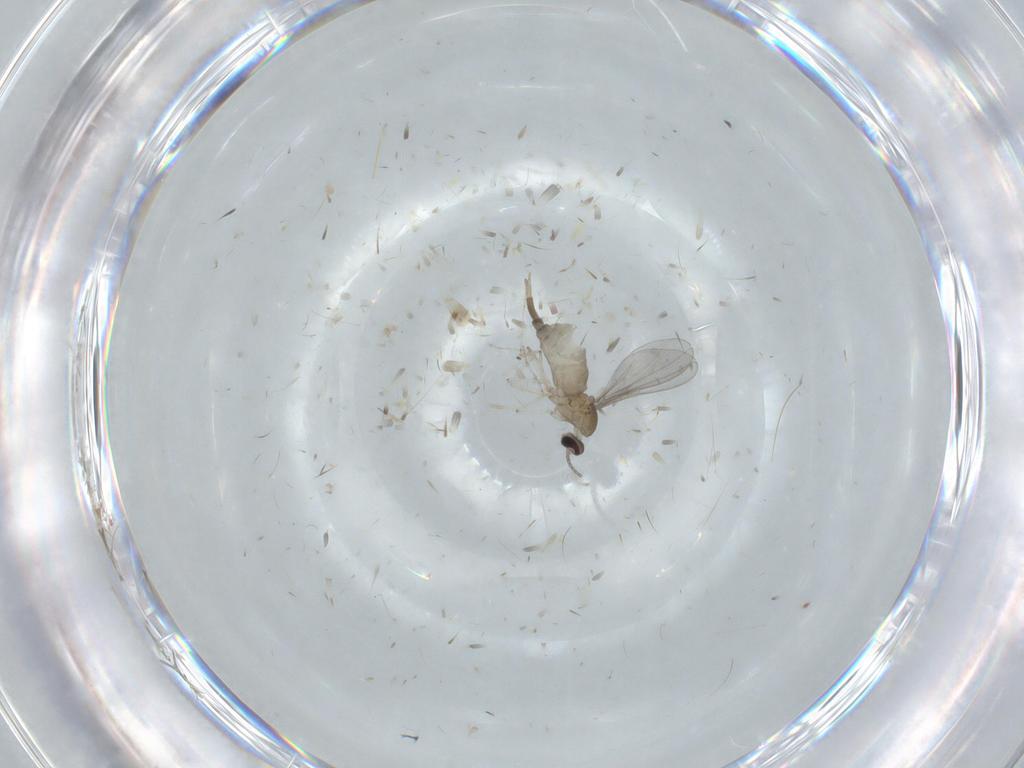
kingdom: Animalia
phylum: Arthropoda
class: Insecta
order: Diptera
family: Cecidomyiidae
